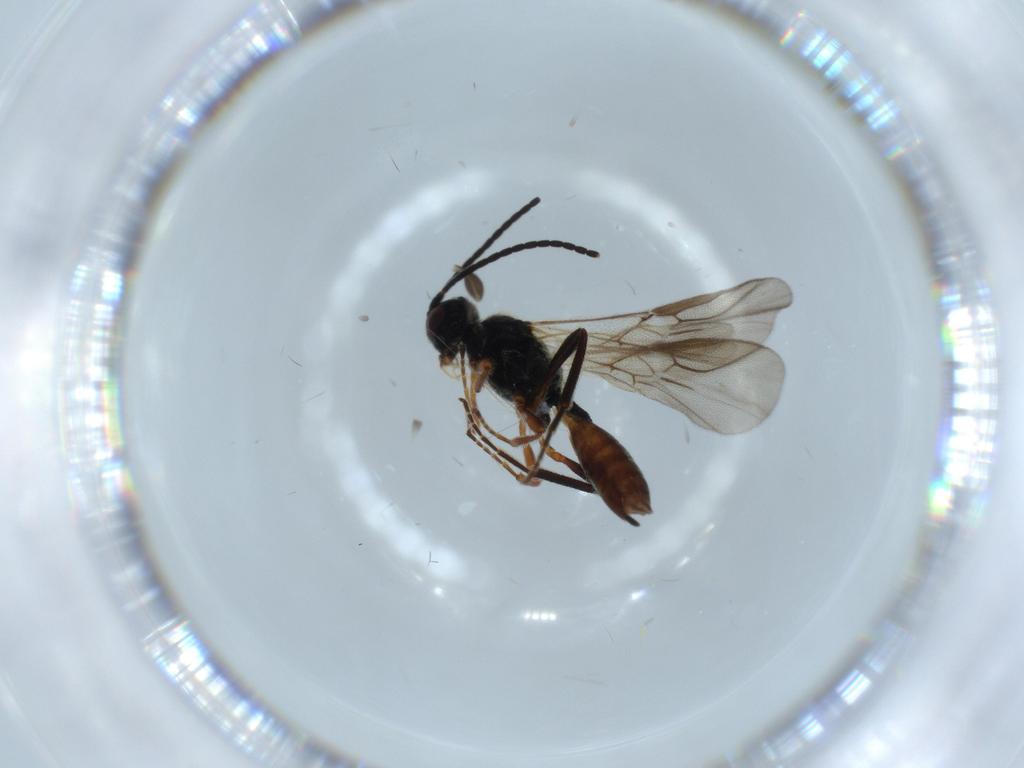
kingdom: Animalia
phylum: Arthropoda
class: Insecta
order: Hymenoptera
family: Braconidae
